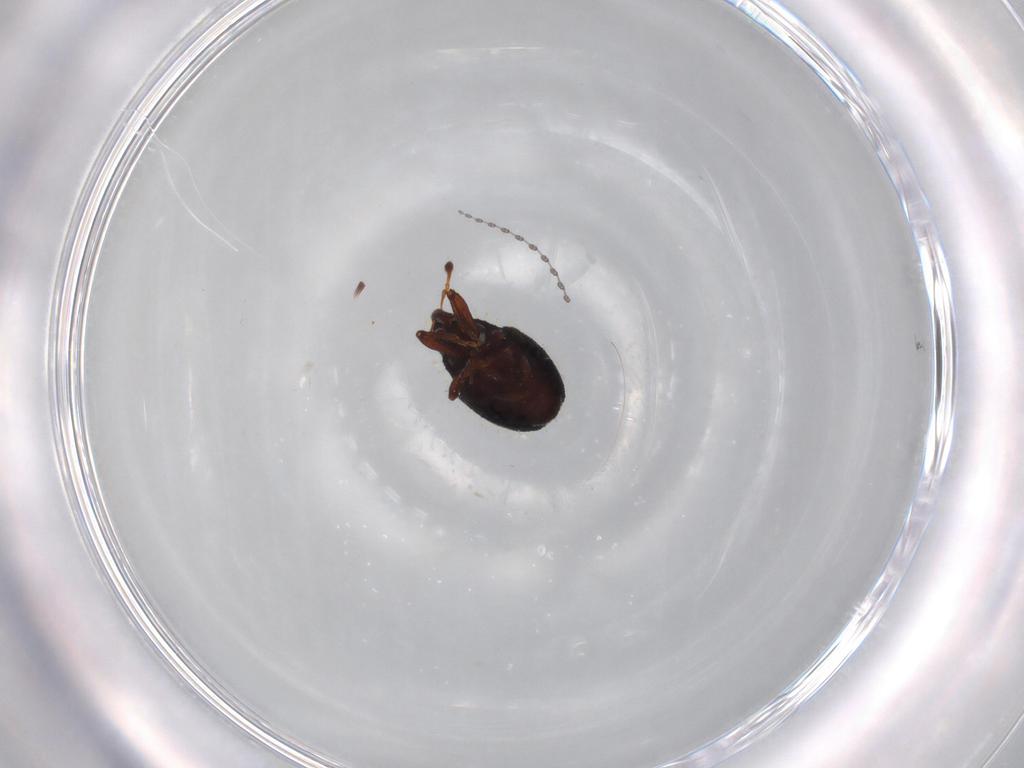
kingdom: Animalia
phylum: Arthropoda
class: Insecta
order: Coleoptera
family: Curculionidae
